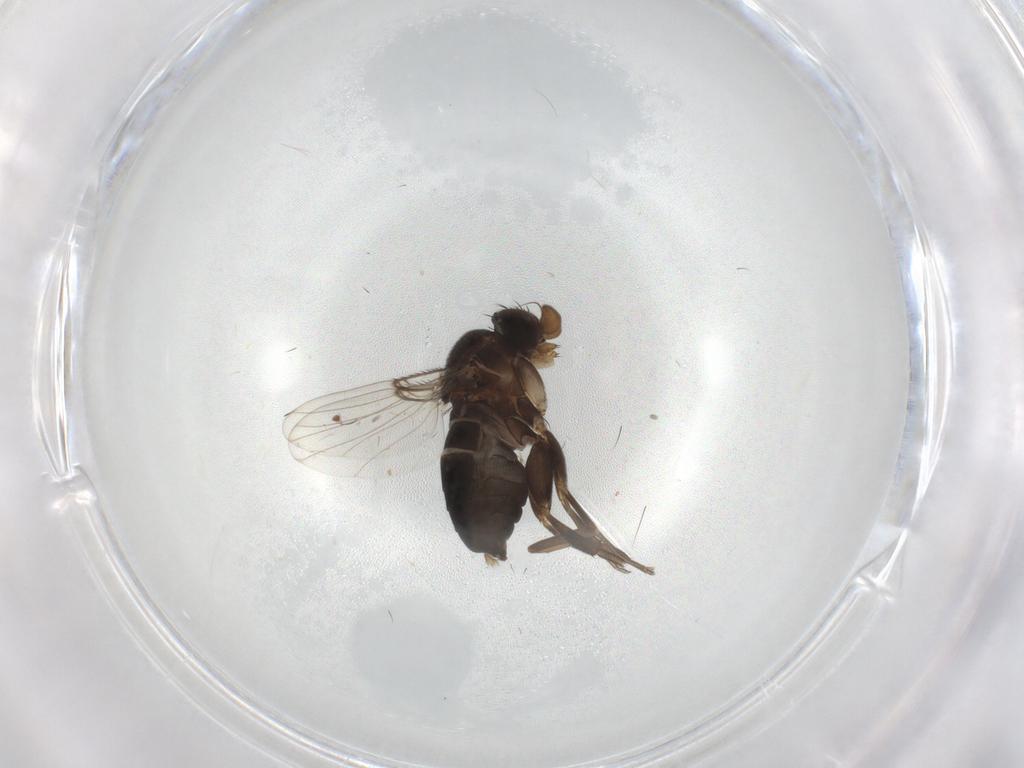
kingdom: Animalia
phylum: Arthropoda
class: Insecta
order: Diptera
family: Phoridae
